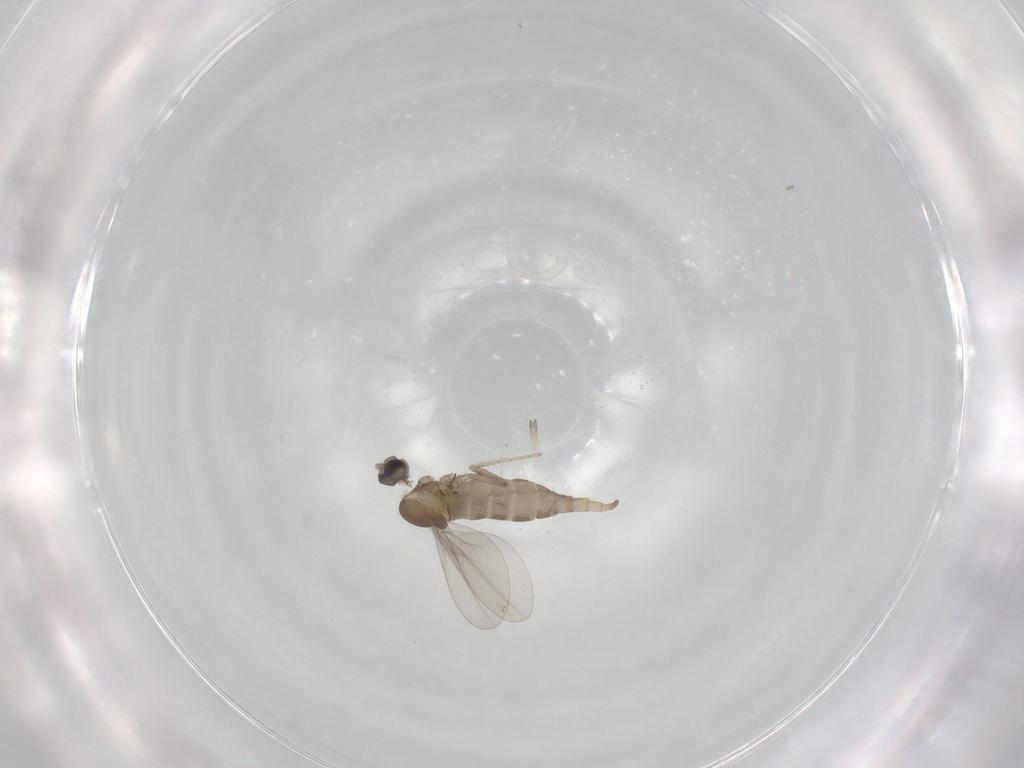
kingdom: Animalia
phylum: Arthropoda
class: Insecta
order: Diptera
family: Cecidomyiidae
